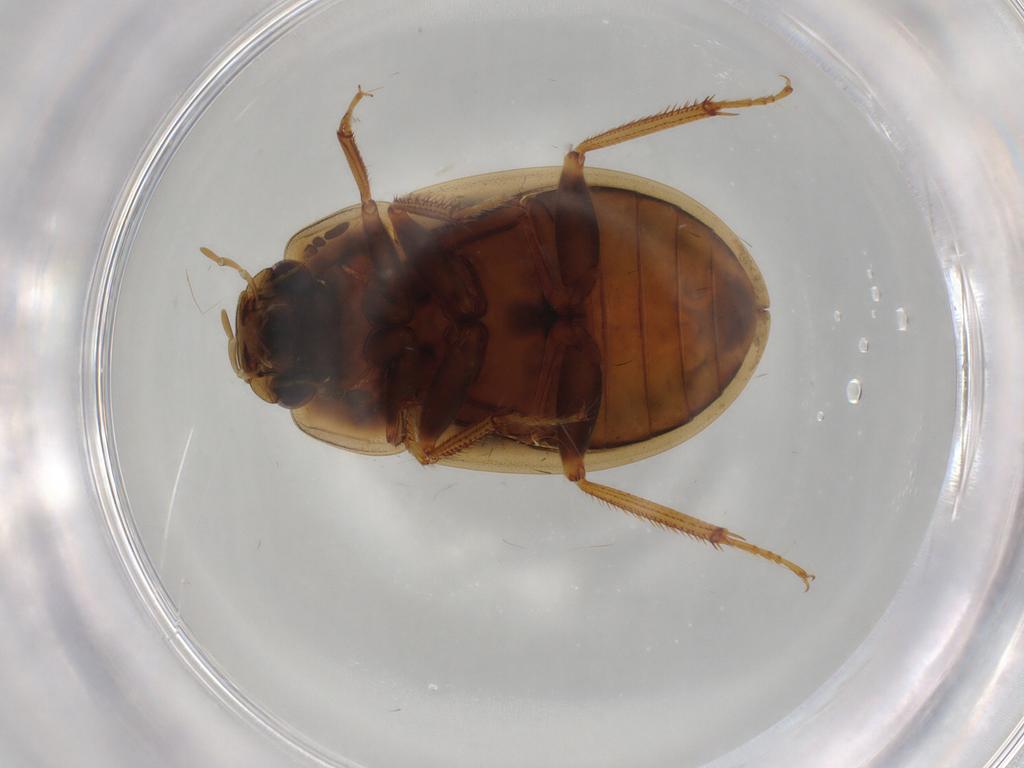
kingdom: Animalia
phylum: Arthropoda
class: Insecta
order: Coleoptera
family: Hydrophilidae
